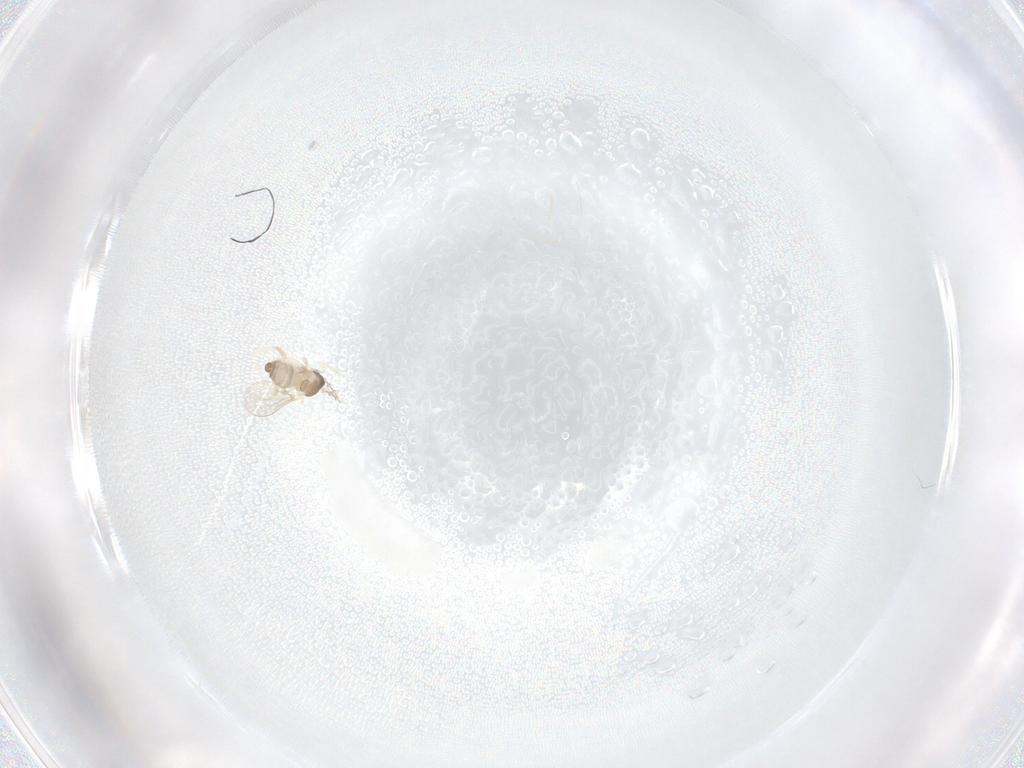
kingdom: Animalia
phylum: Arthropoda
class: Insecta
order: Diptera
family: Cecidomyiidae
